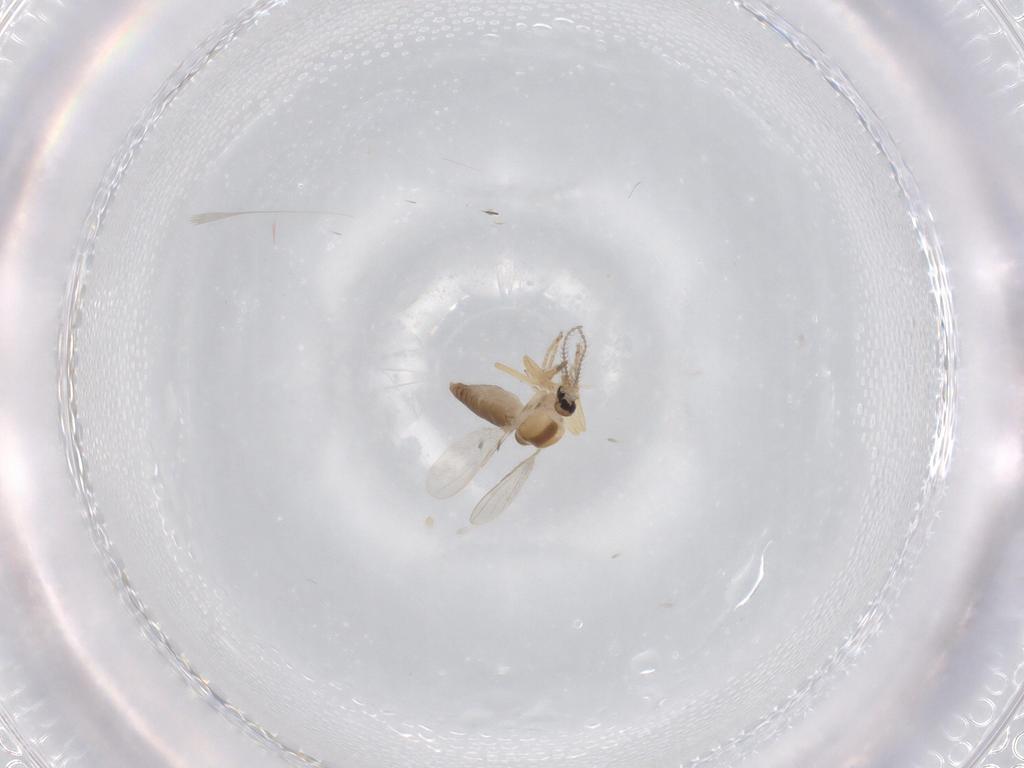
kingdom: Animalia
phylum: Arthropoda
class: Insecta
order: Diptera
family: Ceratopogonidae
